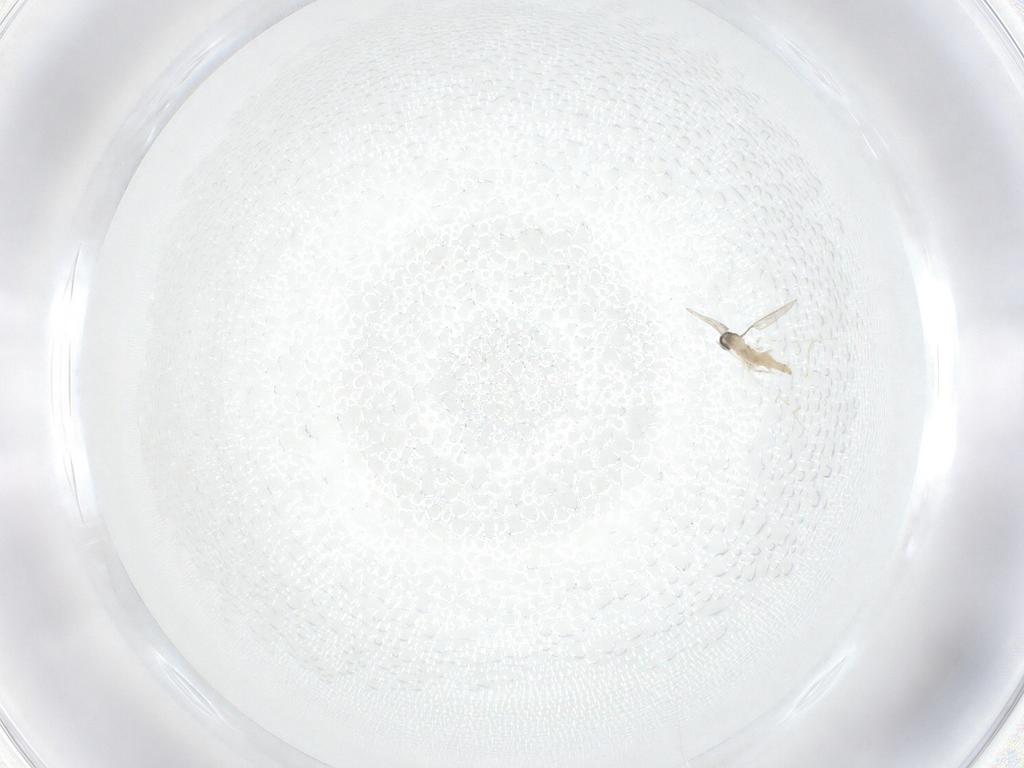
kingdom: Animalia
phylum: Arthropoda
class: Insecta
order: Diptera
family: Cecidomyiidae
